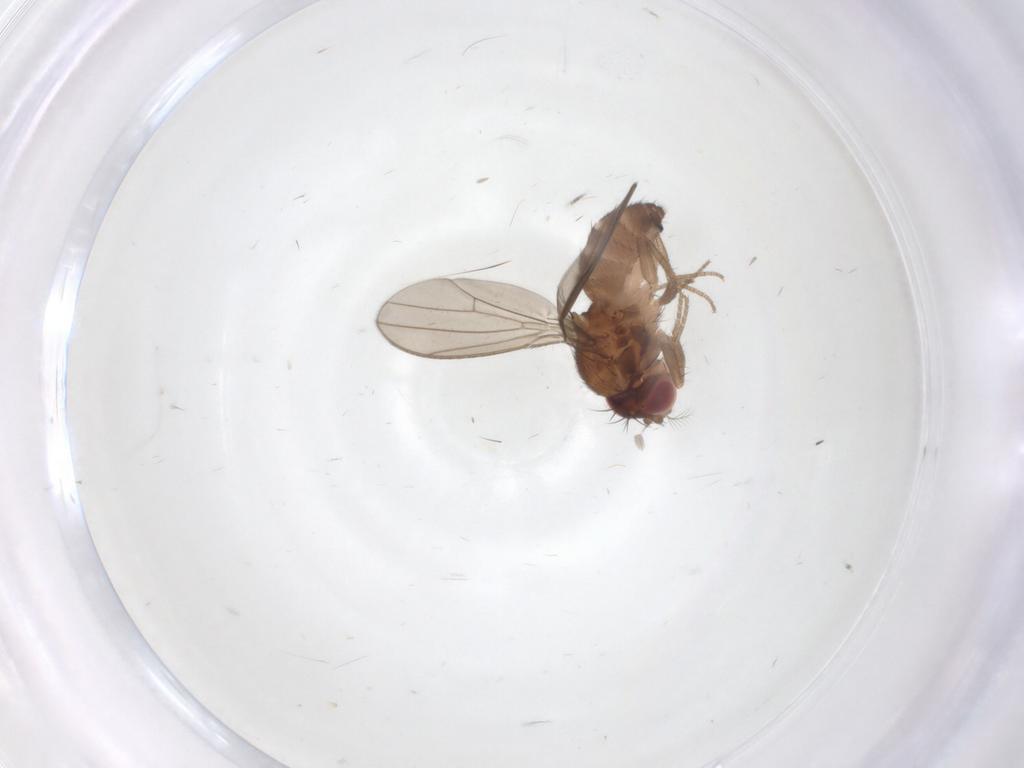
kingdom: Animalia
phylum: Arthropoda
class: Insecta
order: Diptera
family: Drosophilidae
